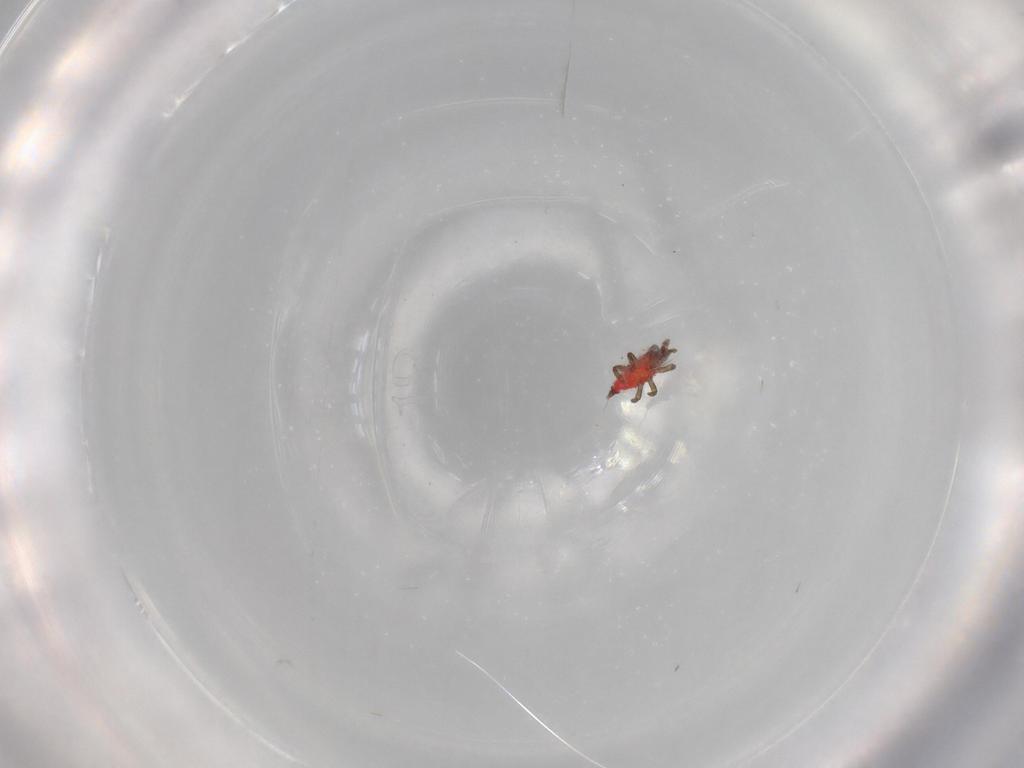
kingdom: Animalia
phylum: Arthropoda
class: Insecta
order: Thysanoptera
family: Phlaeothripidae
